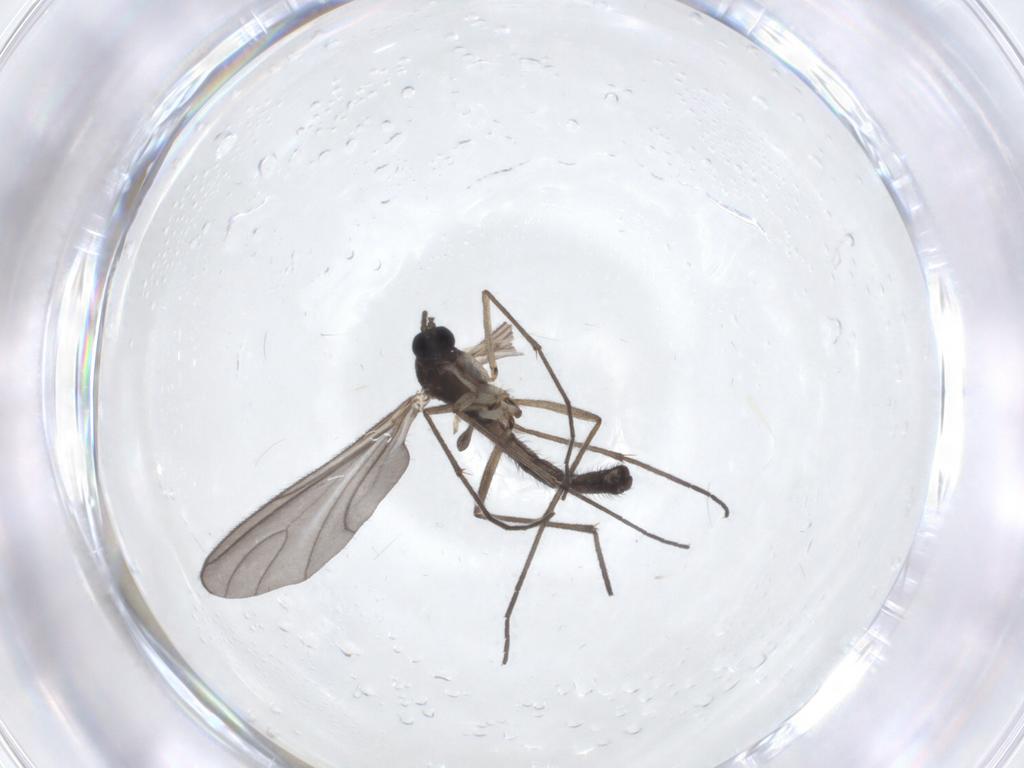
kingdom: Animalia
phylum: Arthropoda
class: Insecta
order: Diptera
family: Sciaridae
